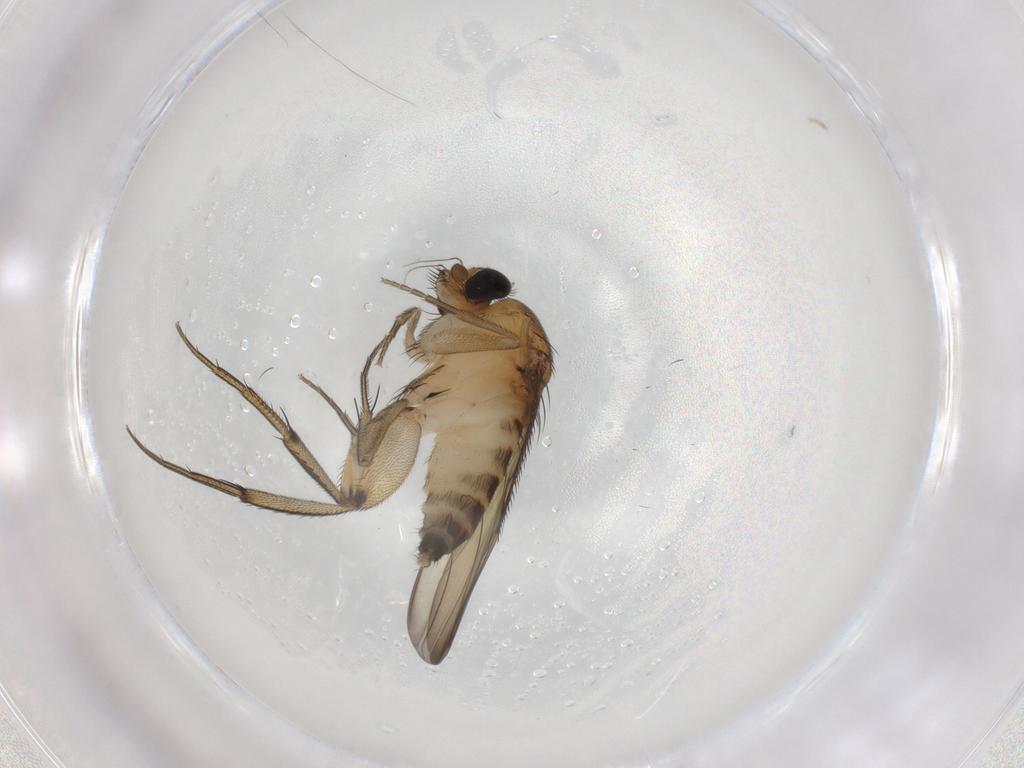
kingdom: Animalia
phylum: Arthropoda
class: Insecta
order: Diptera
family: Phoridae
